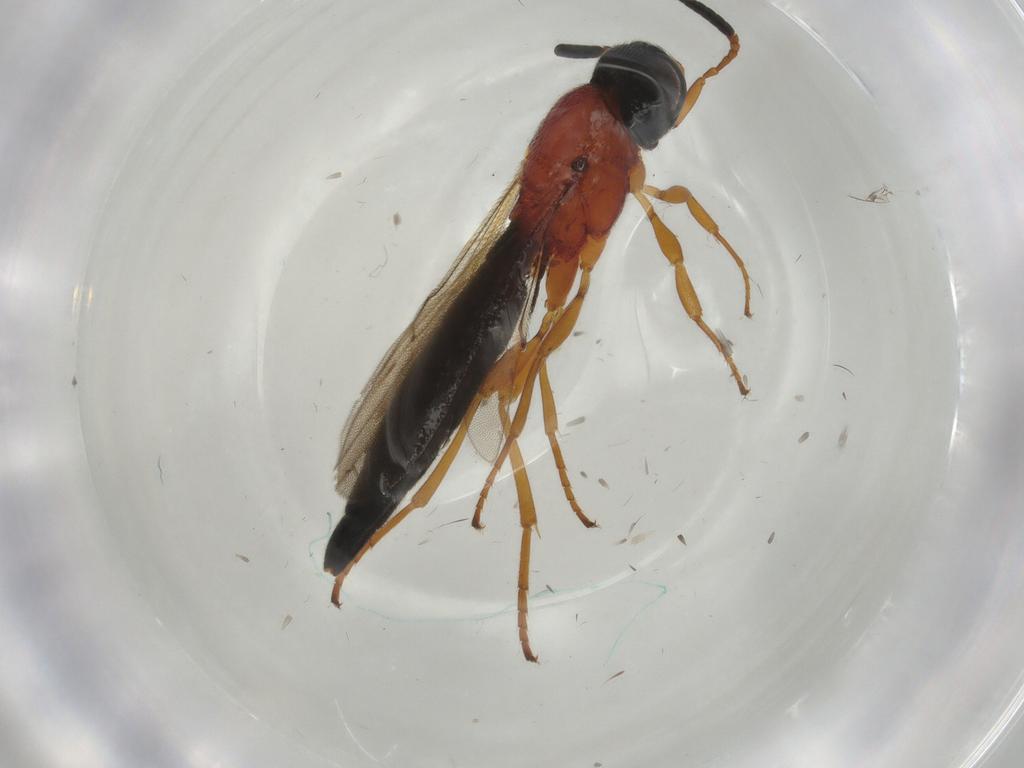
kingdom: Animalia
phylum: Arthropoda
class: Insecta
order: Hymenoptera
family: Scelionidae
